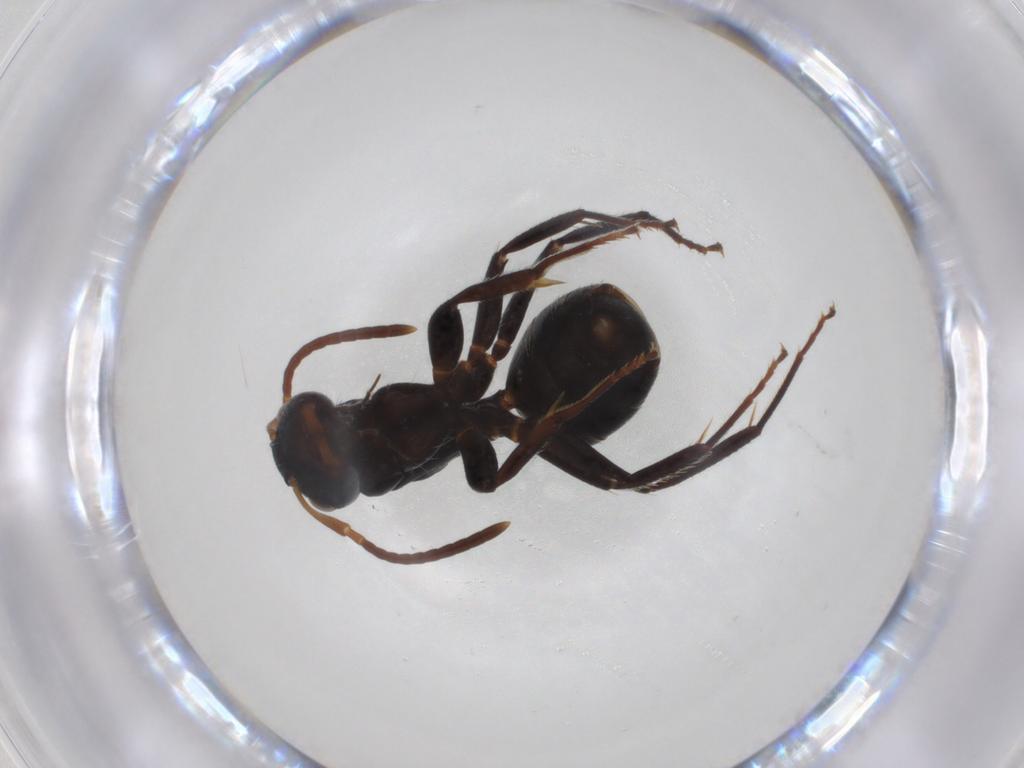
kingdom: Animalia
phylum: Arthropoda
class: Insecta
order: Hymenoptera
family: Formicidae
